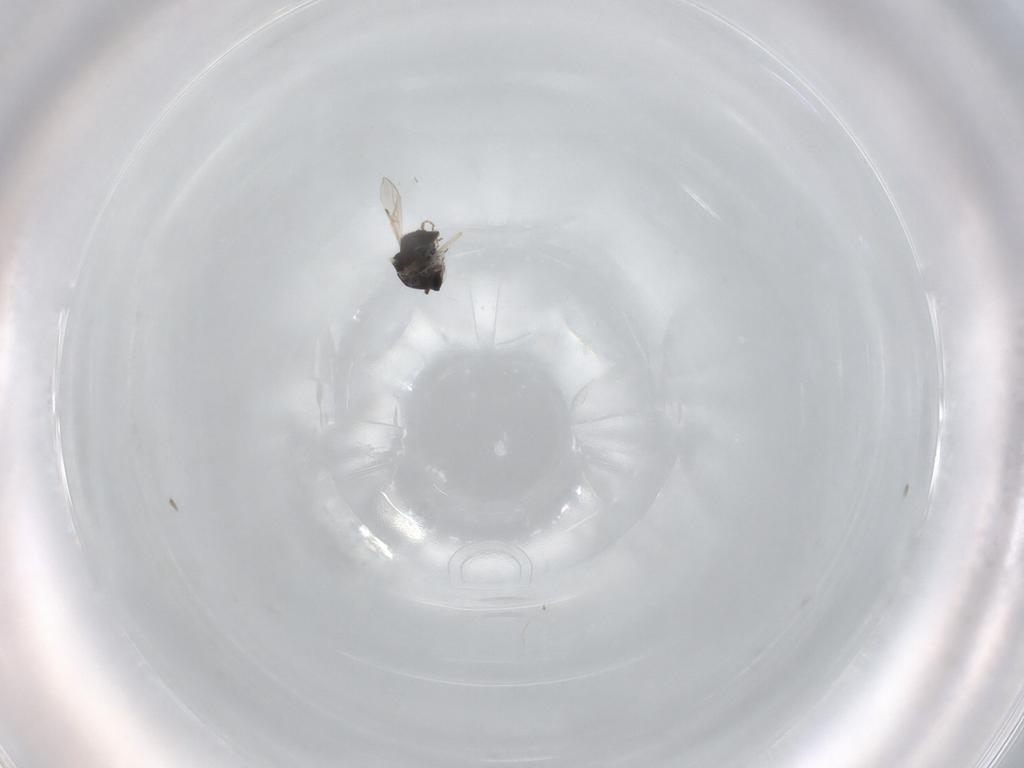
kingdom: Animalia
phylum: Arthropoda
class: Insecta
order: Diptera
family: Ceratopogonidae
